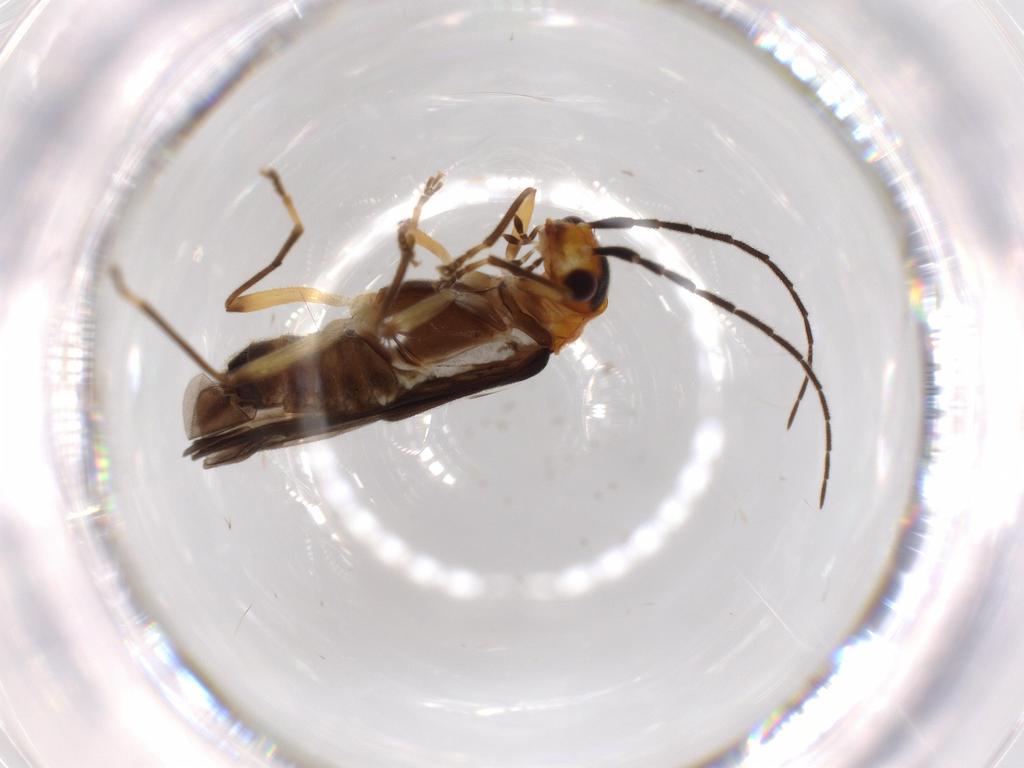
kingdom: Animalia
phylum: Arthropoda
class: Insecta
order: Coleoptera
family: Cantharidae
